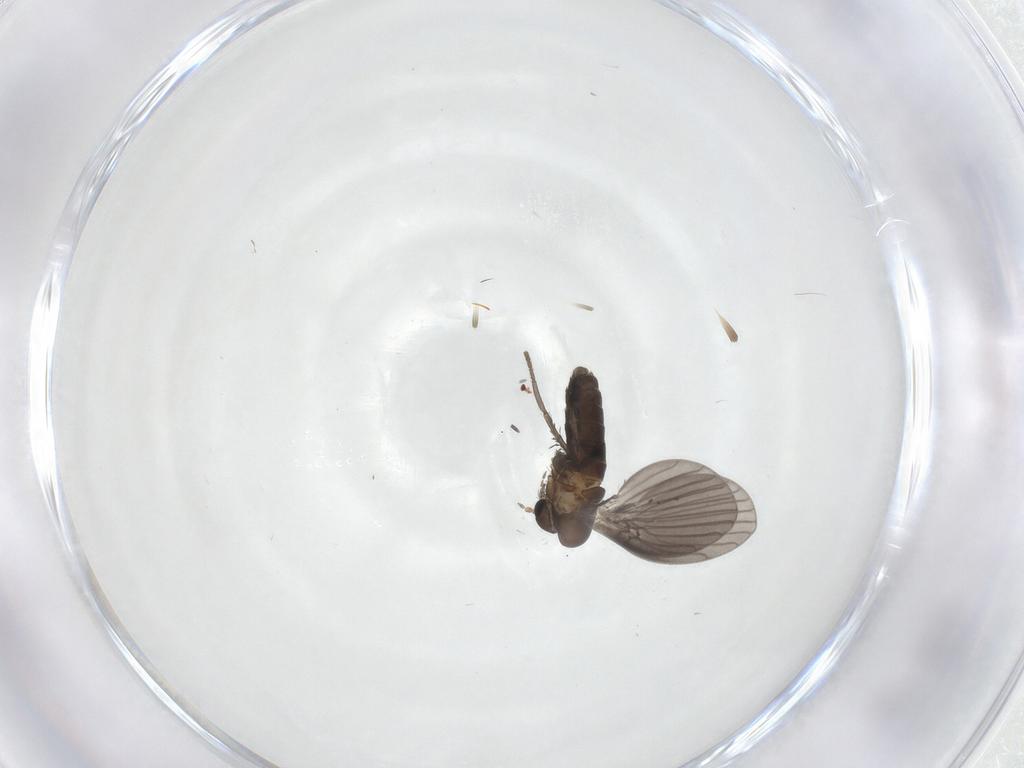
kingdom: Animalia
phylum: Arthropoda
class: Insecta
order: Diptera
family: Psychodidae
